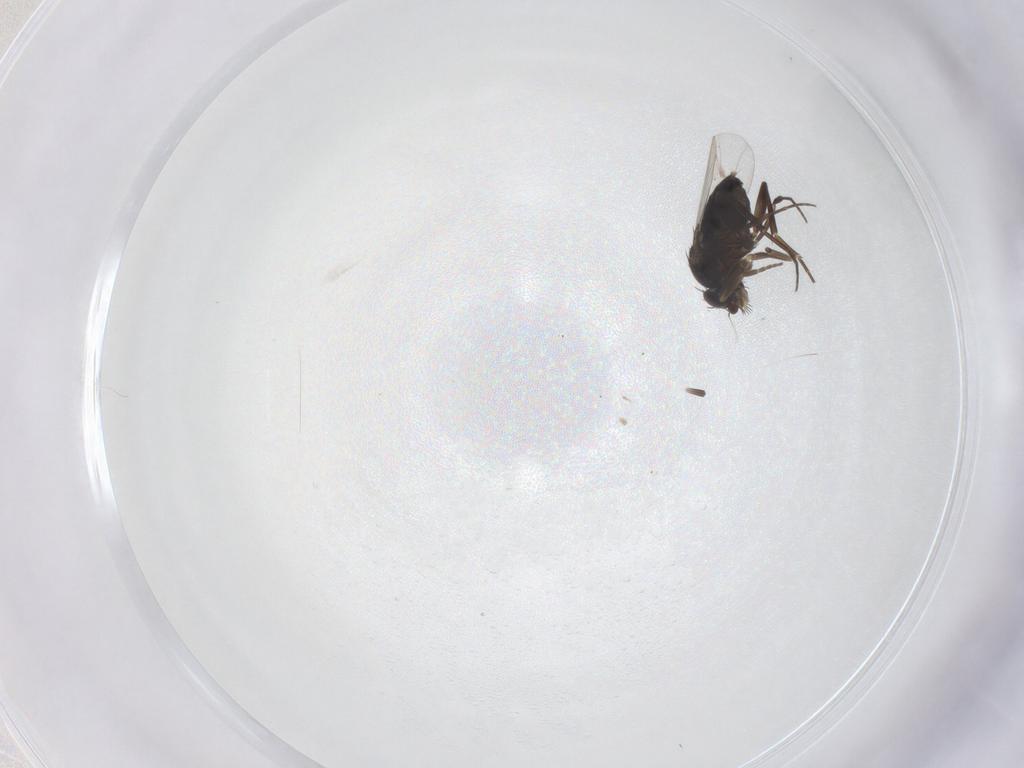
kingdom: Animalia
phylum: Arthropoda
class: Insecta
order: Diptera
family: Phoridae
